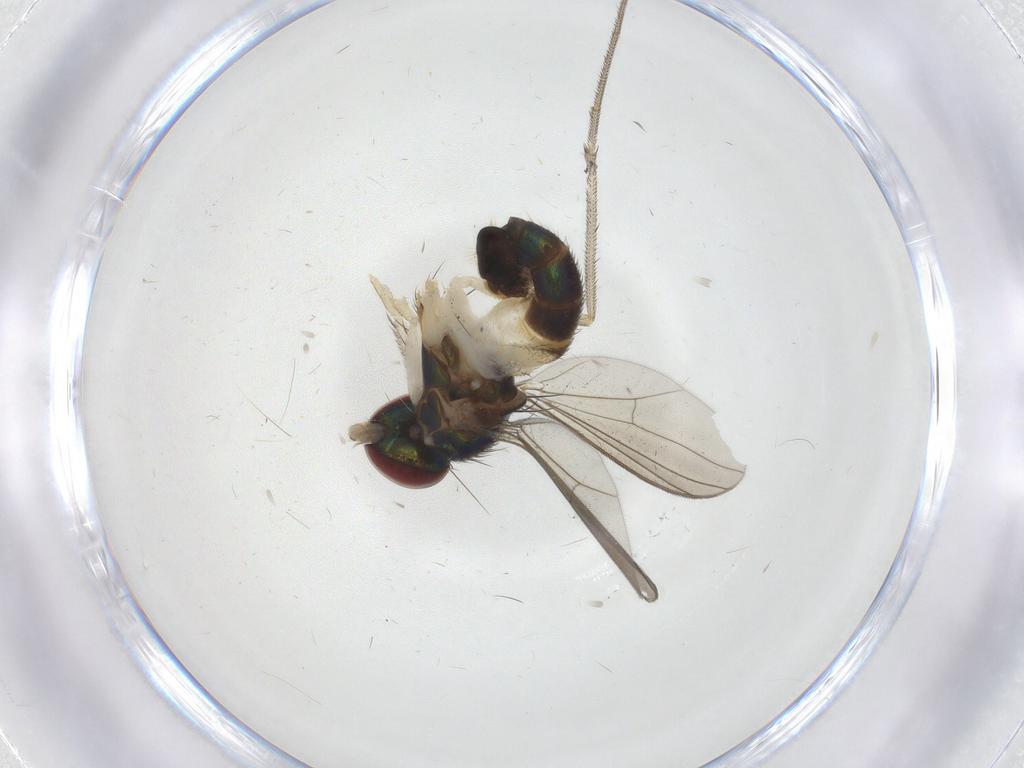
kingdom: Animalia
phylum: Arthropoda
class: Insecta
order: Diptera
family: Dolichopodidae
